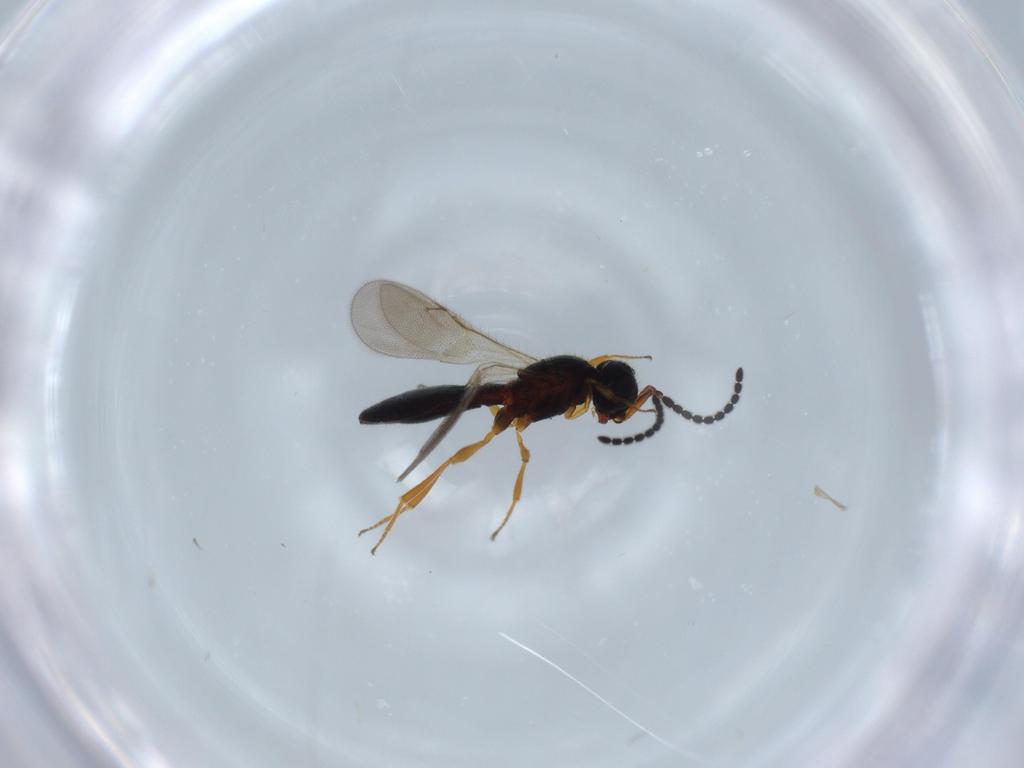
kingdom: Animalia
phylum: Arthropoda
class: Insecta
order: Hymenoptera
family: Scelionidae
